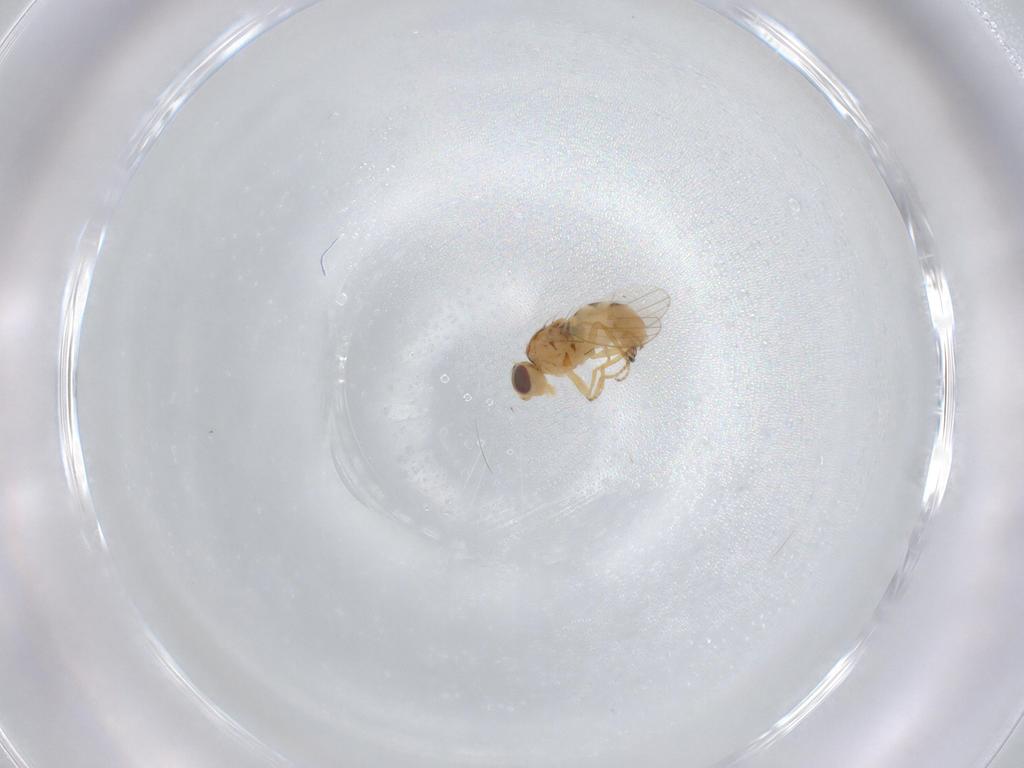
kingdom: Animalia
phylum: Arthropoda
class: Insecta
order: Diptera
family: Chyromyidae
